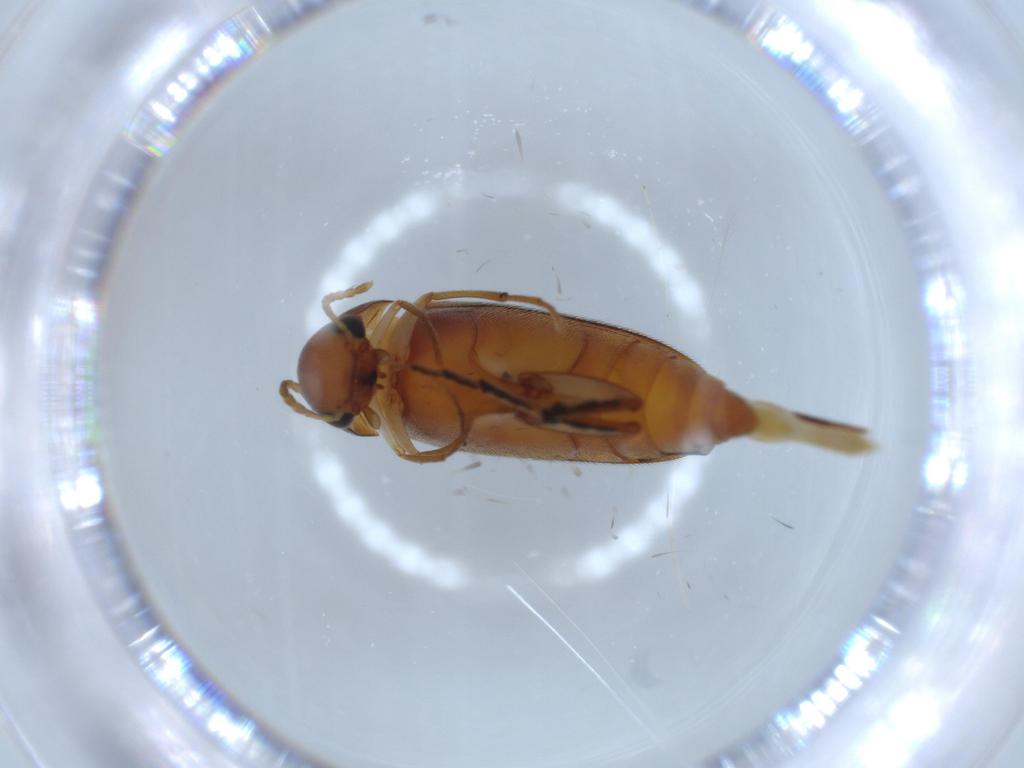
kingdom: Animalia
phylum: Arthropoda
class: Insecta
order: Coleoptera
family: Mordellidae
